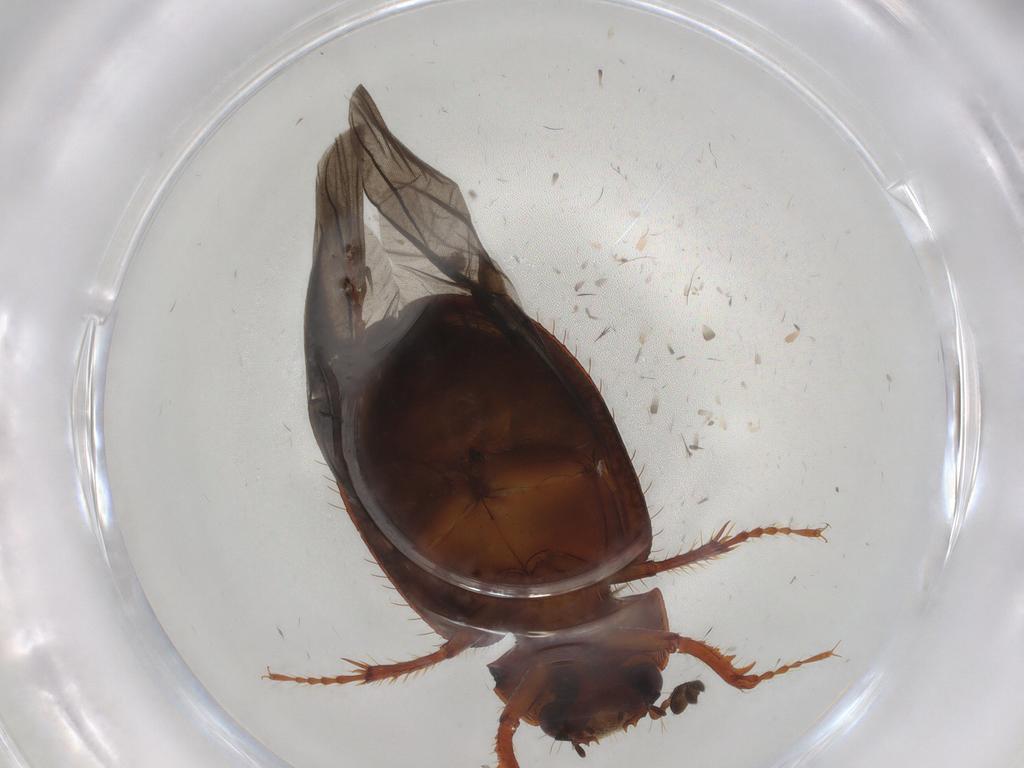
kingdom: Animalia
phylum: Arthropoda
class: Insecta
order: Coleoptera
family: Hybosoridae
